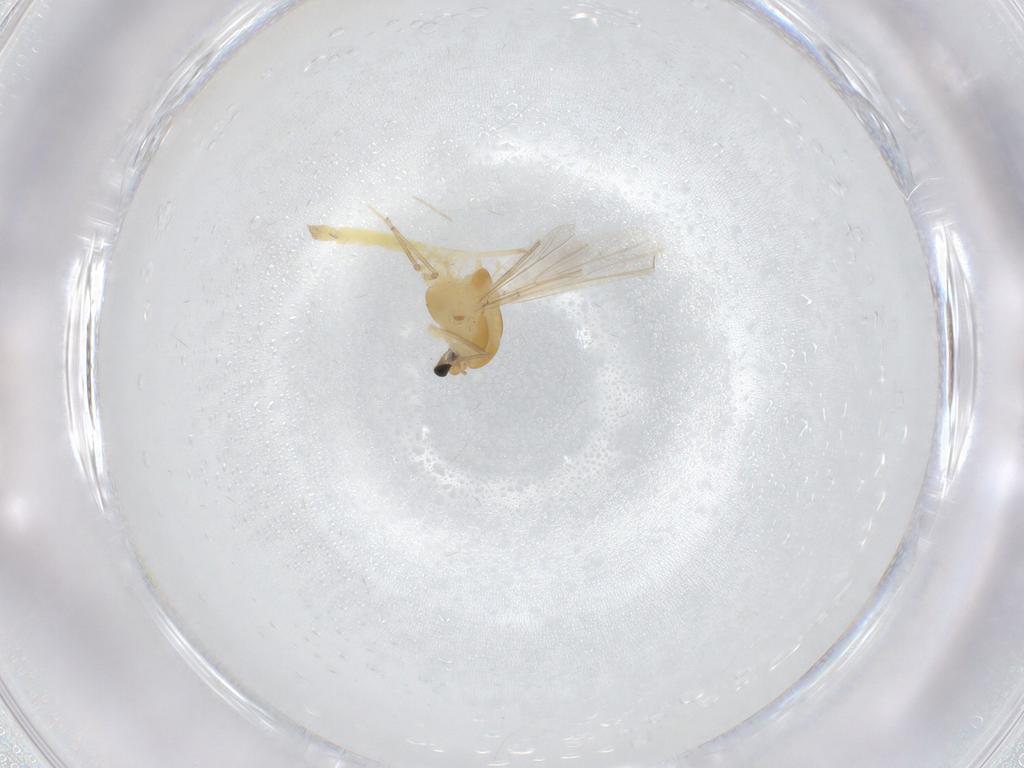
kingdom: Animalia
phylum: Arthropoda
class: Insecta
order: Diptera
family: Chironomidae
